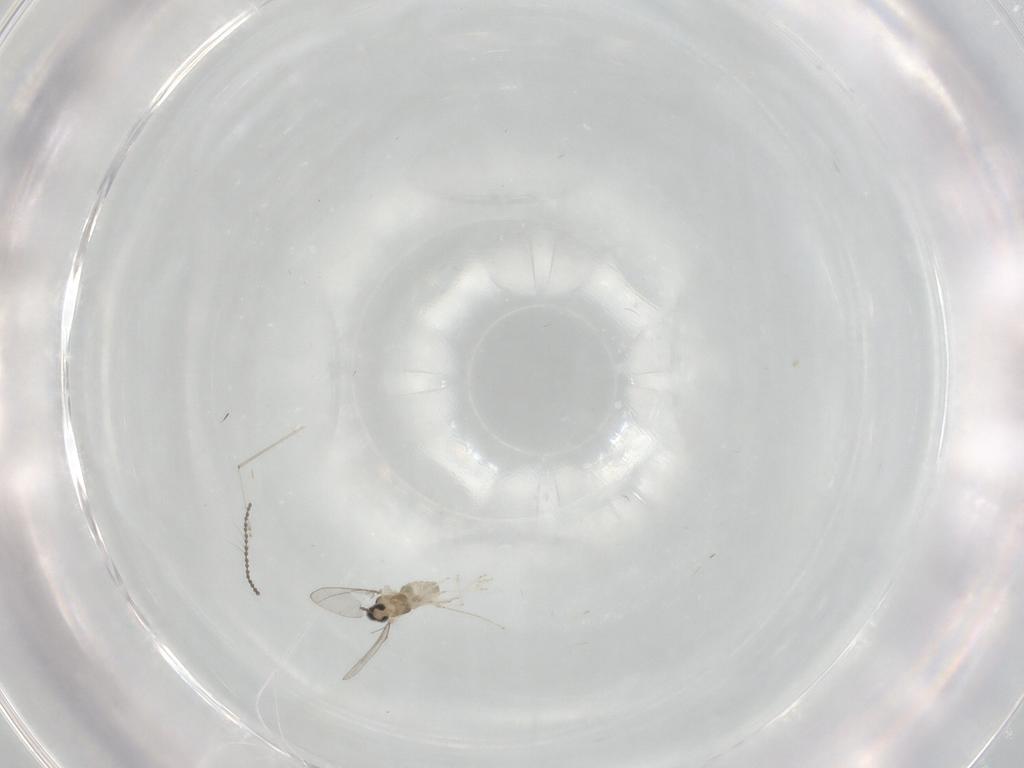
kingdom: Animalia
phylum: Arthropoda
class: Insecta
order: Diptera
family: Cecidomyiidae
